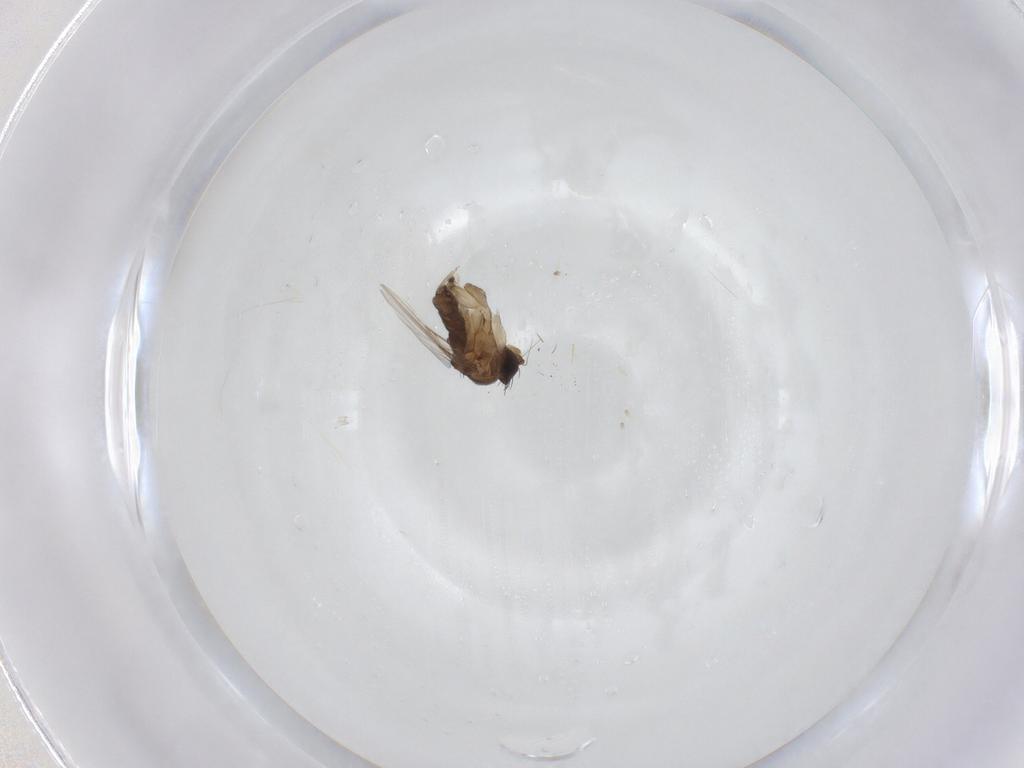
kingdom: Animalia
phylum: Arthropoda
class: Insecta
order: Diptera
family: Phoridae
